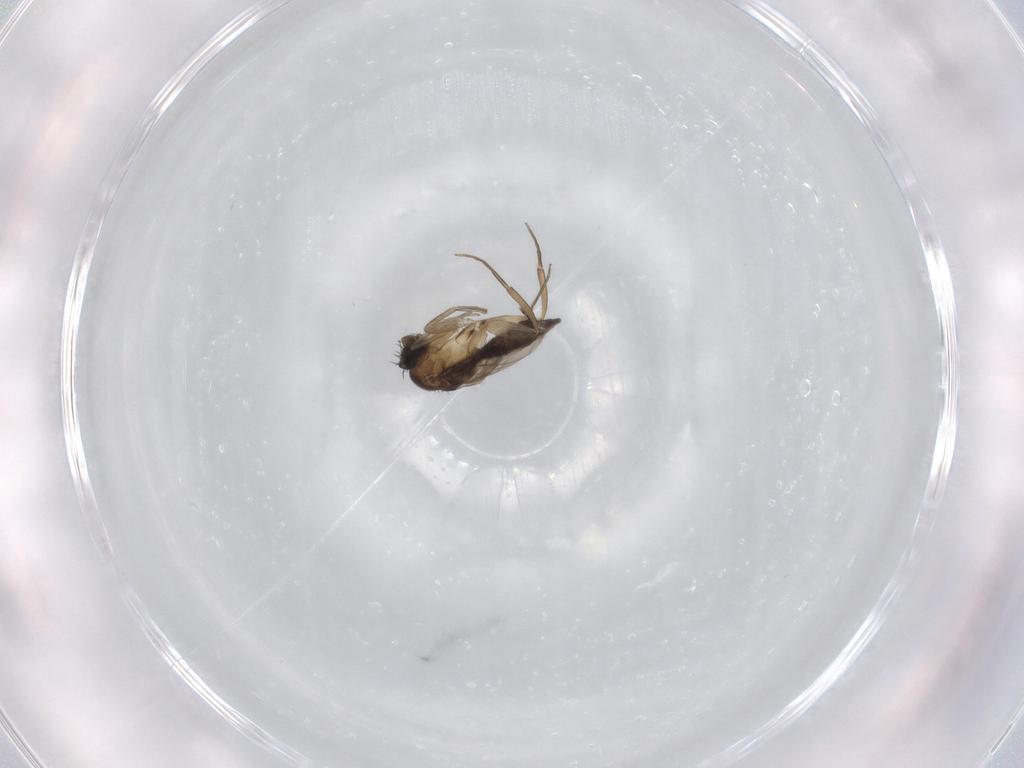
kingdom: Animalia
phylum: Arthropoda
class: Insecta
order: Diptera
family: Phoridae
